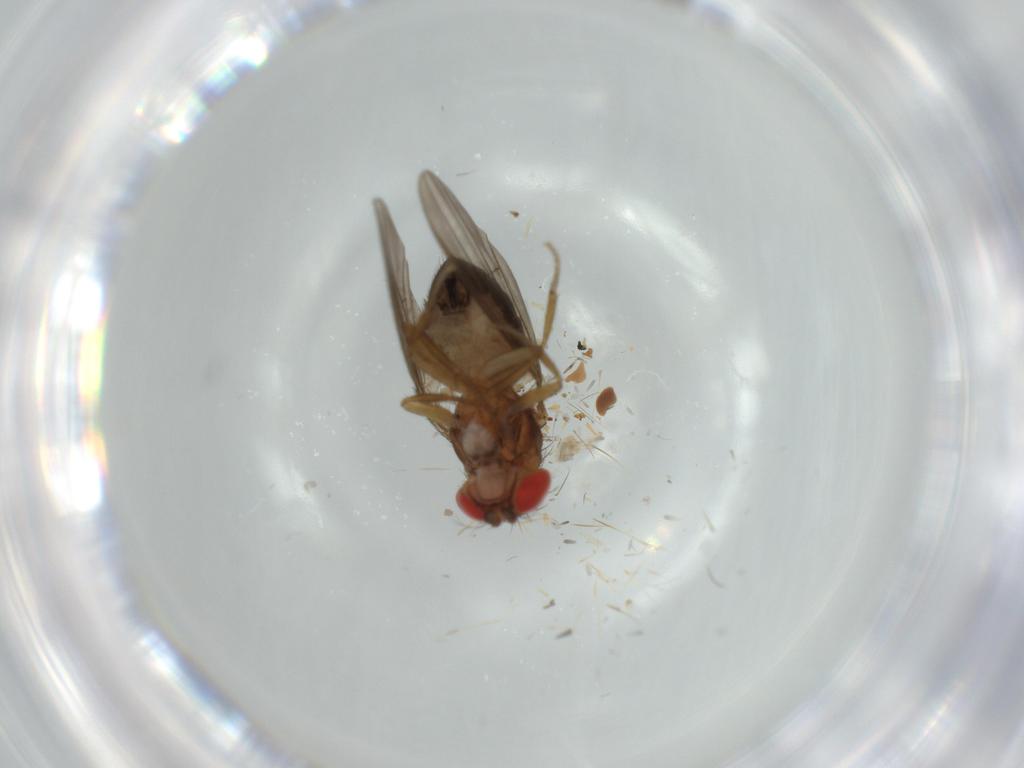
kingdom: Animalia
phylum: Arthropoda
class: Insecta
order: Diptera
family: Drosophilidae
